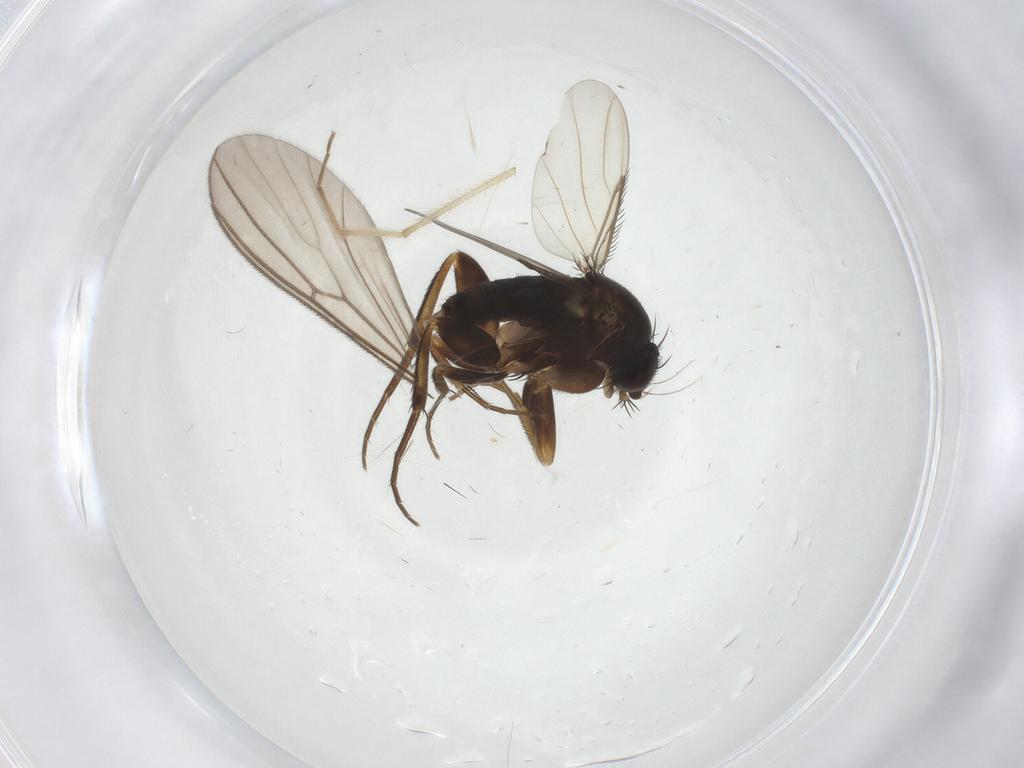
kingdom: Animalia
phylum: Arthropoda
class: Insecta
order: Diptera
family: Phoridae
